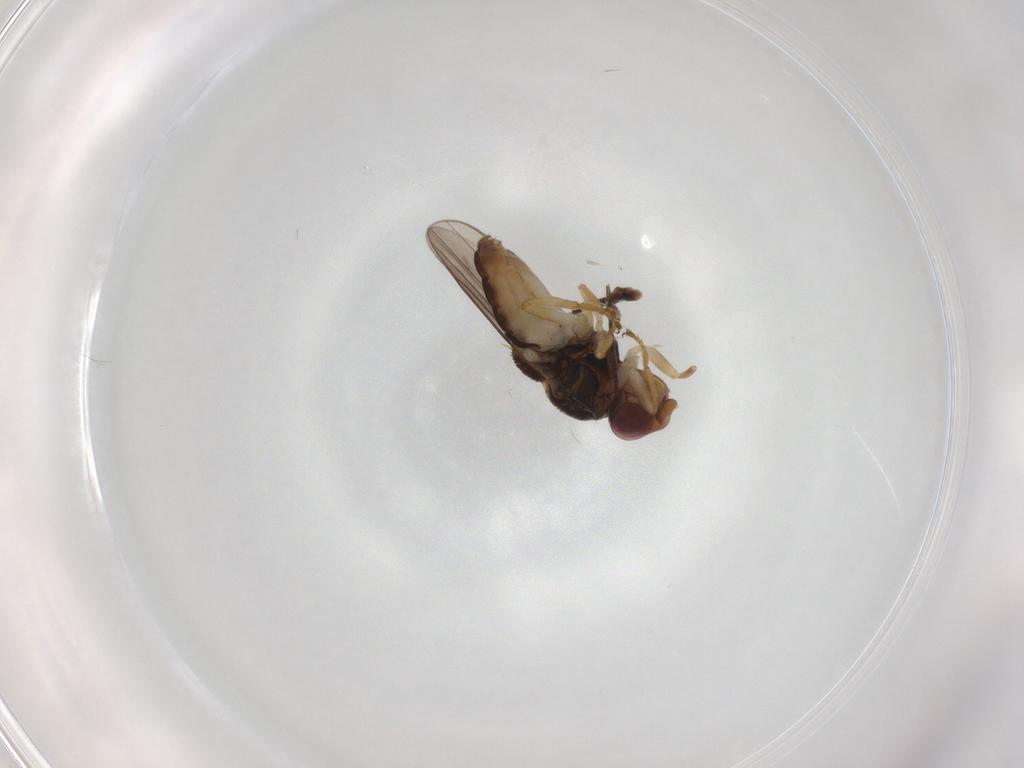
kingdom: Animalia
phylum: Arthropoda
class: Insecta
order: Diptera
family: Sciaridae
